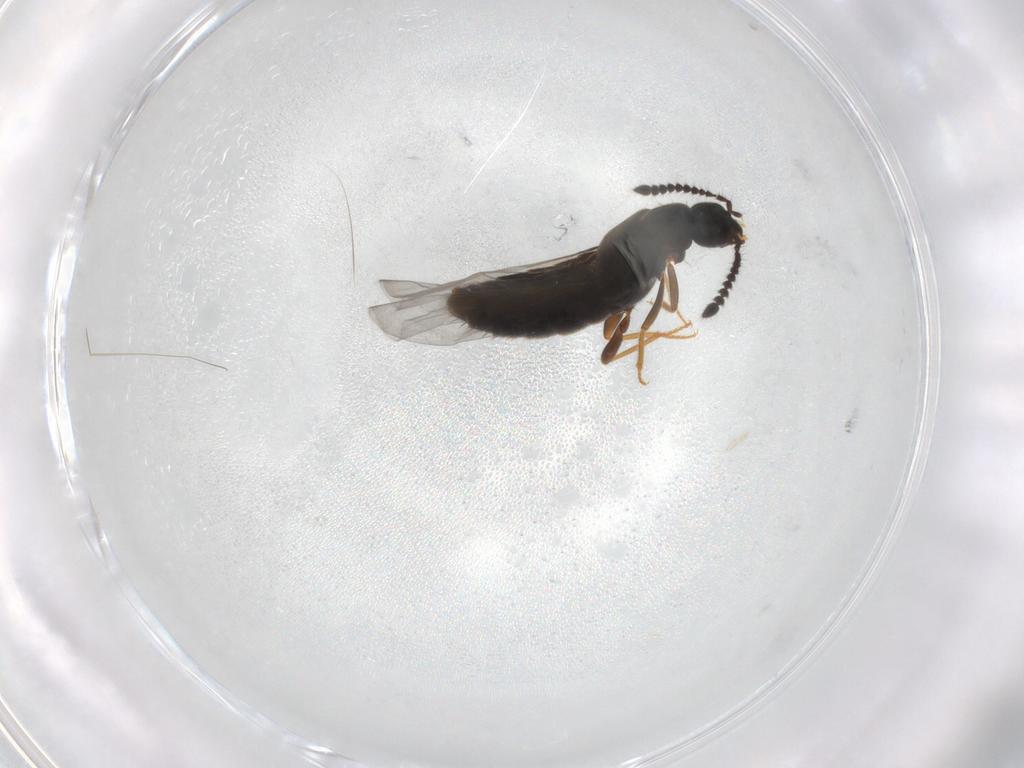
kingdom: Animalia
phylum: Arthropoda
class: Insecta
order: Coleoptera
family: Staphylinidae
